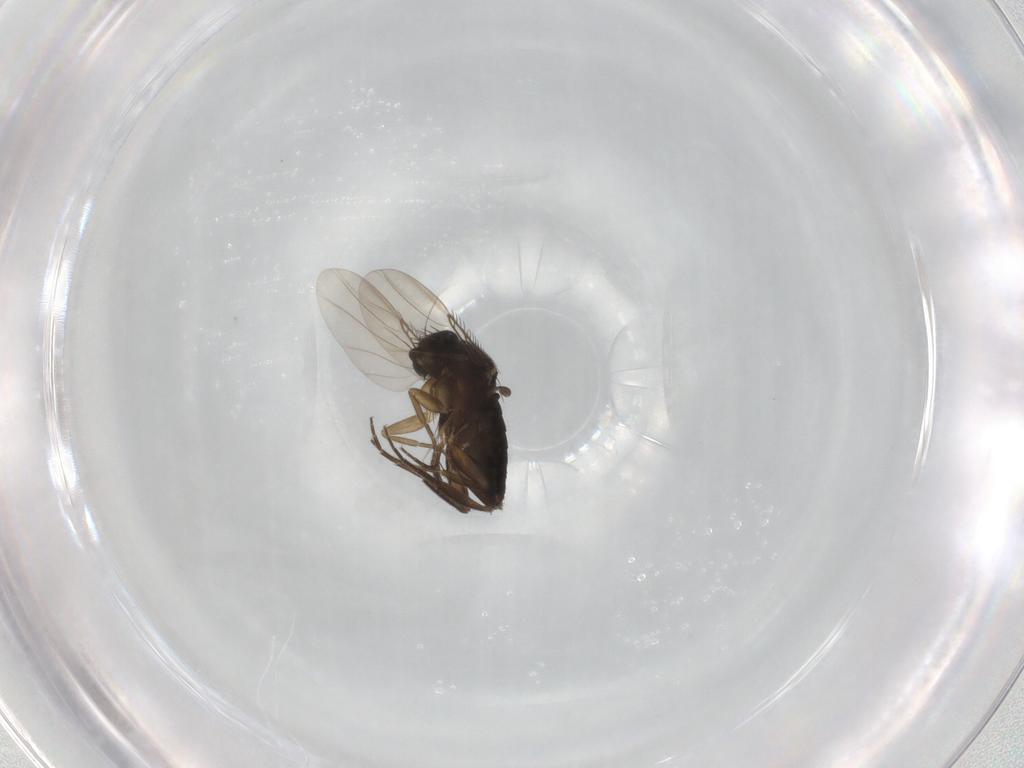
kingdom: Animalia
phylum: Arthropoda
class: Insecta
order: Diptera
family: Phoridae
